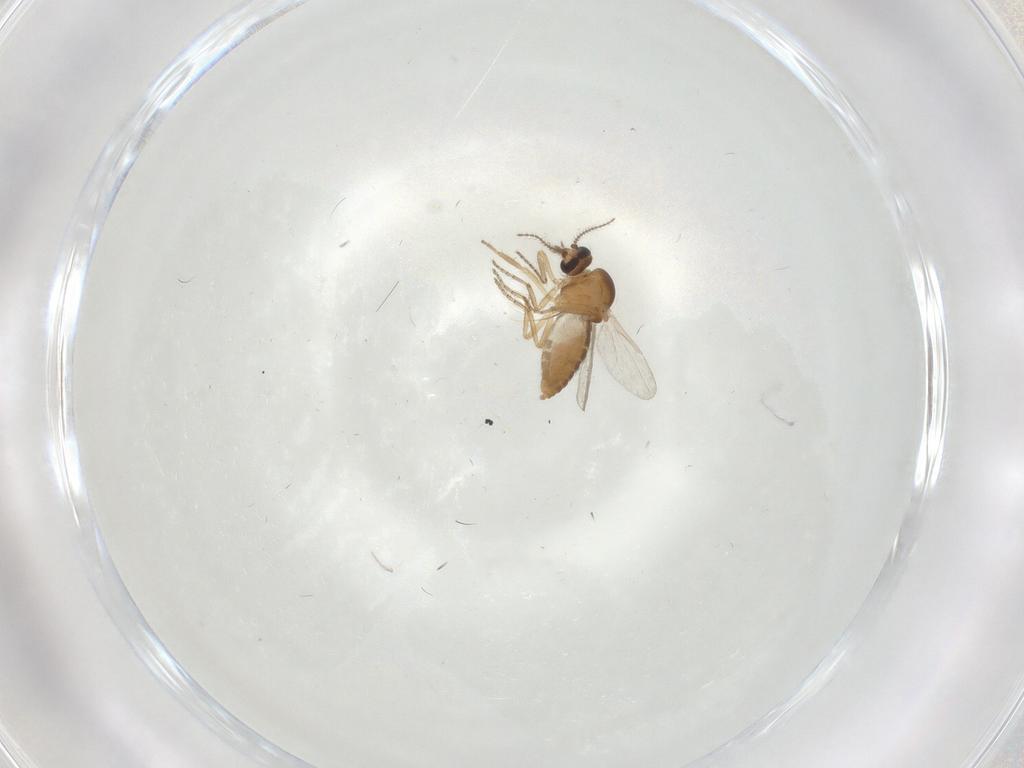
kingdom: Animalia
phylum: Arthropoda
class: Insecta
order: Diptera
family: Ceratopogonidae
